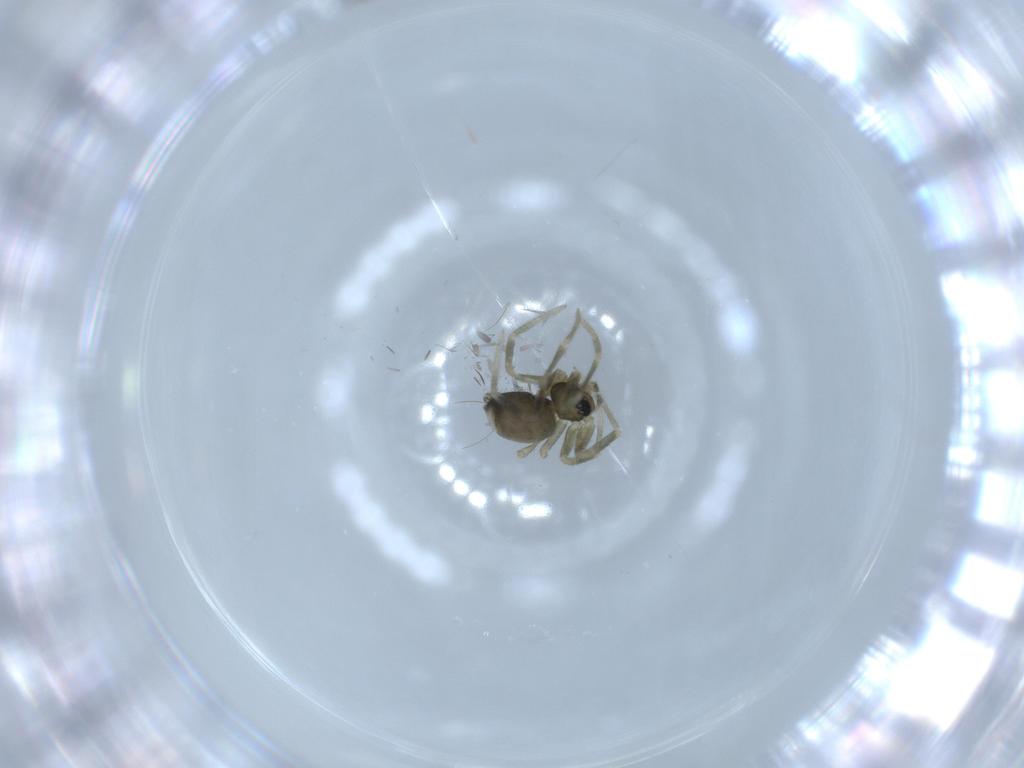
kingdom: Animalia
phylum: Arthropoda
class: Arachnida
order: Araneae
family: Linyphiidae
